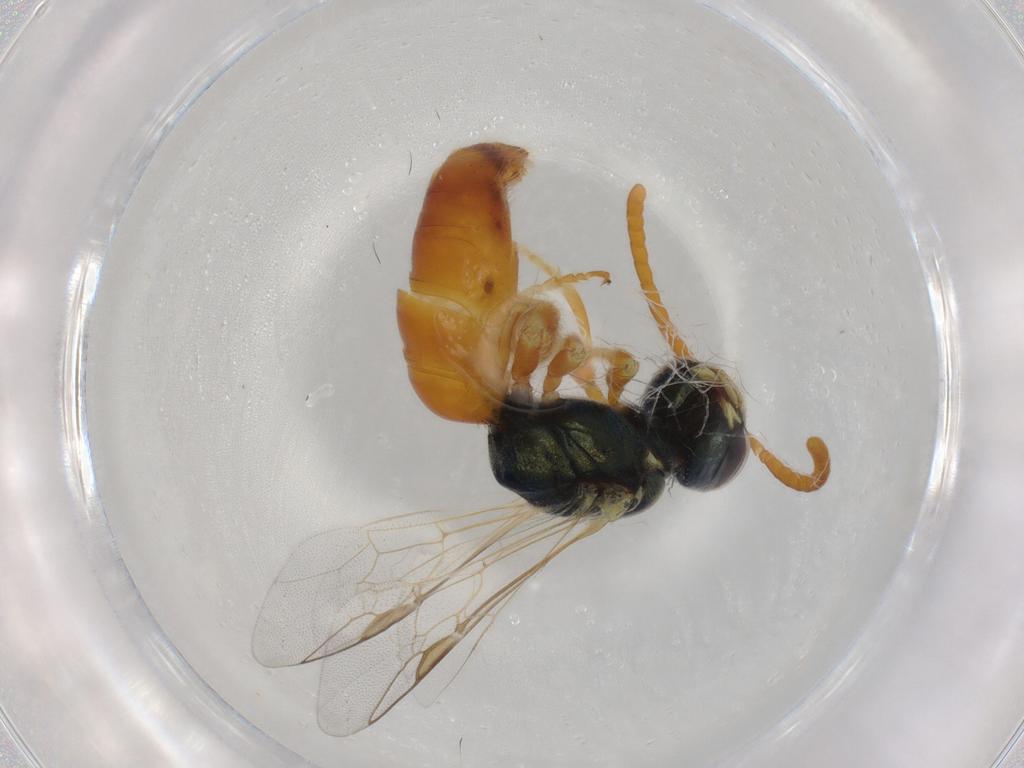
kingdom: Animalia
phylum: Arthropoda
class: Insecta
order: Hymenoptera
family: Halictidae
